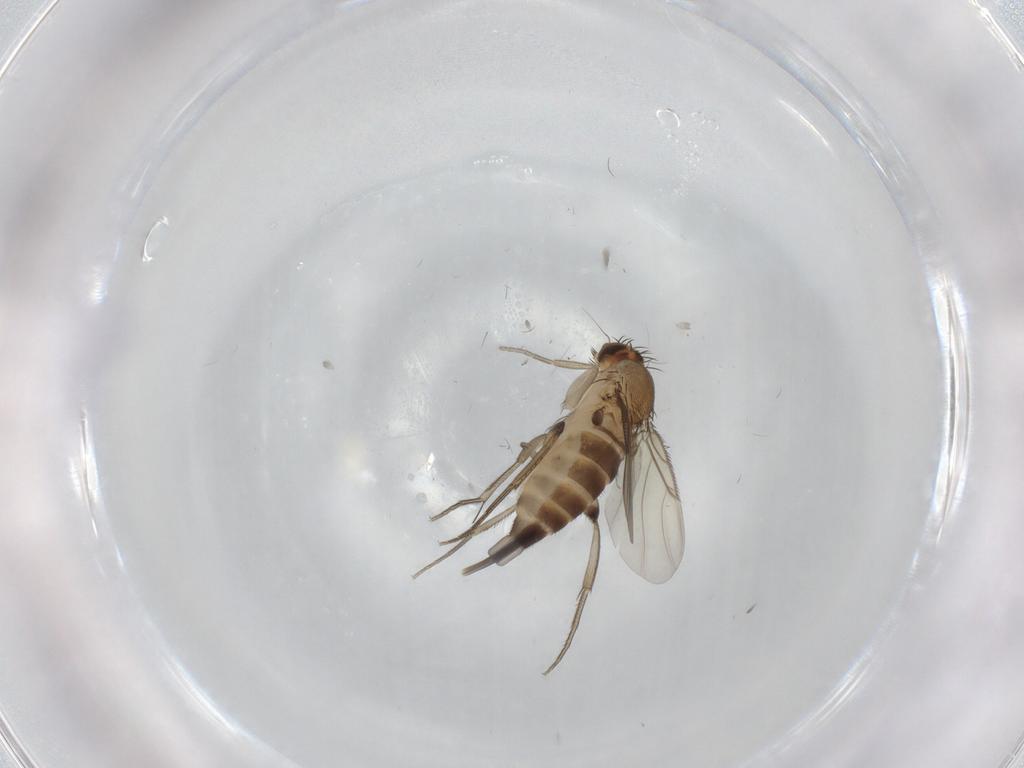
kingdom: Animalia
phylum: Arthropoda
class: Insecta
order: Diptera
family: Phoridae
